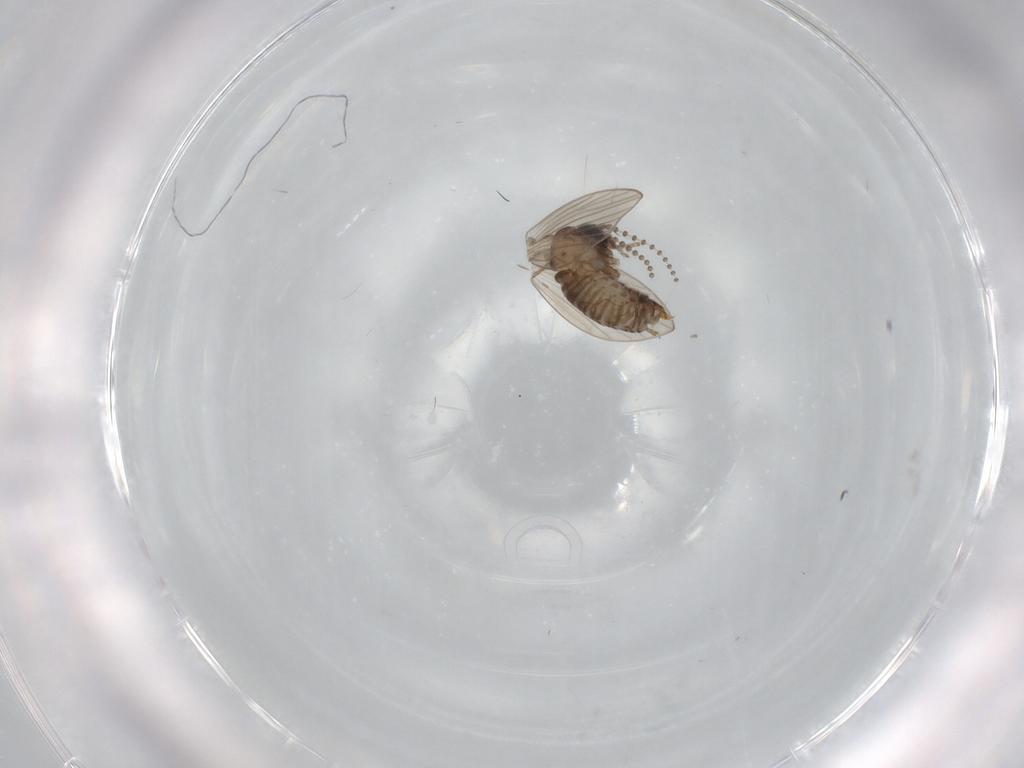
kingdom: Animalia
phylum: Arthropoda
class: Insecta
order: Diptera
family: Psychodidae
